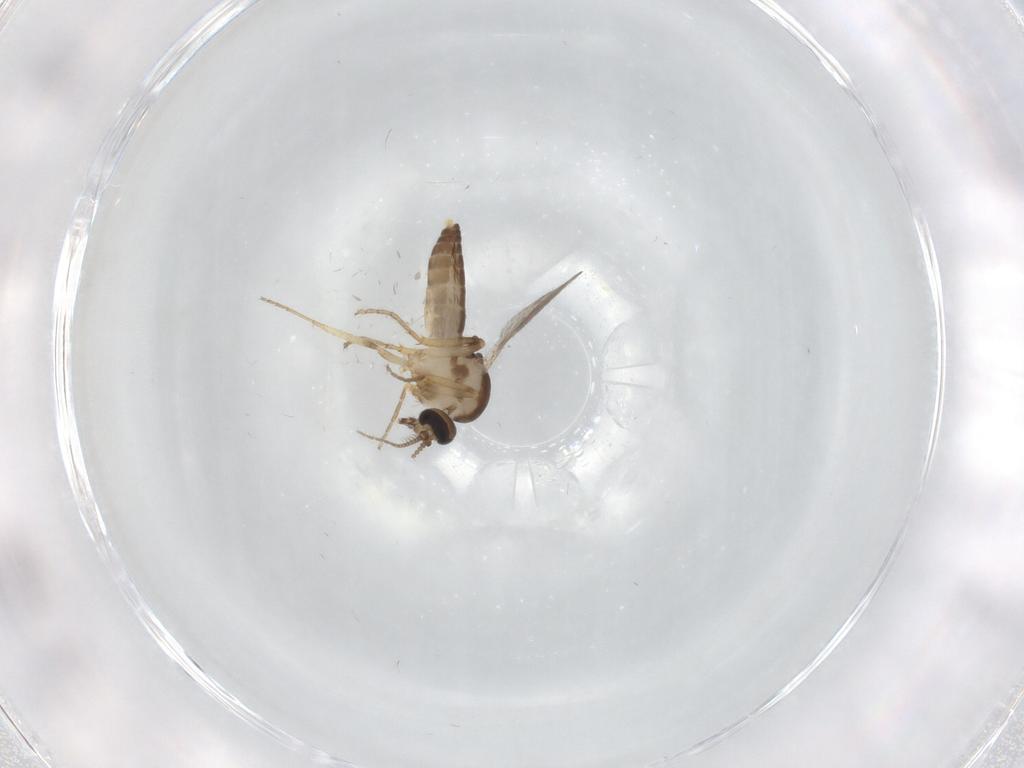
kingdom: Animalia
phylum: Arthropoda
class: Insecta
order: Diptera
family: Ceratopogonidae
